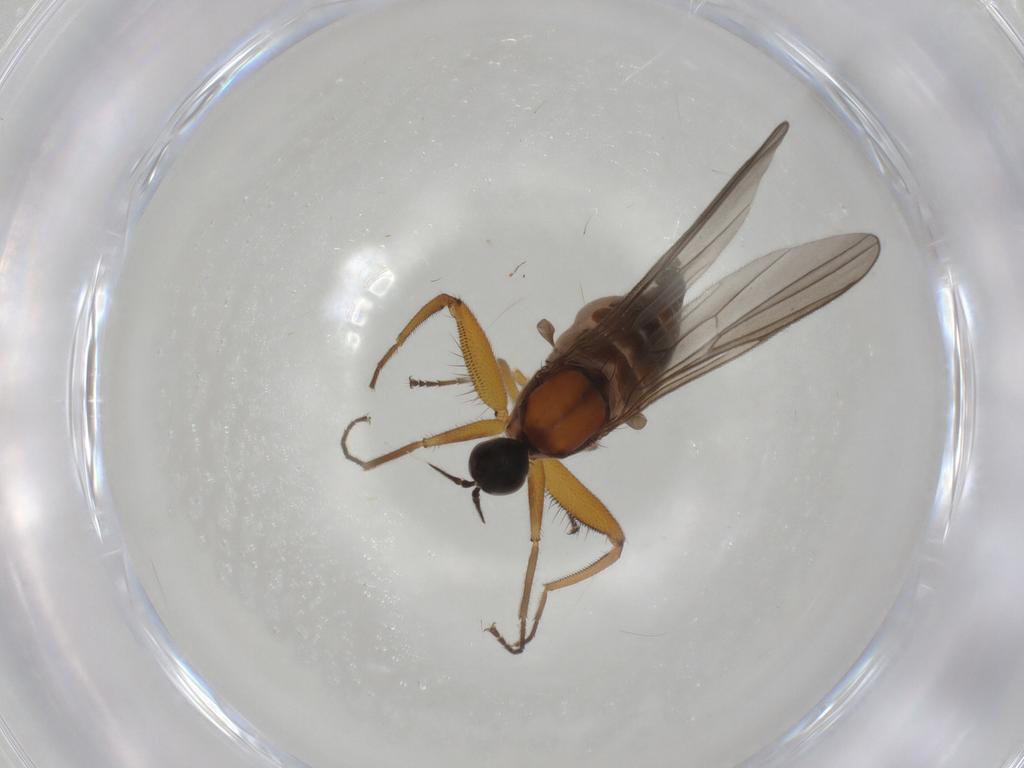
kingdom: Animalia
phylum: Arthropoda
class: Insecta
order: Diptera
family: Hybotidae
